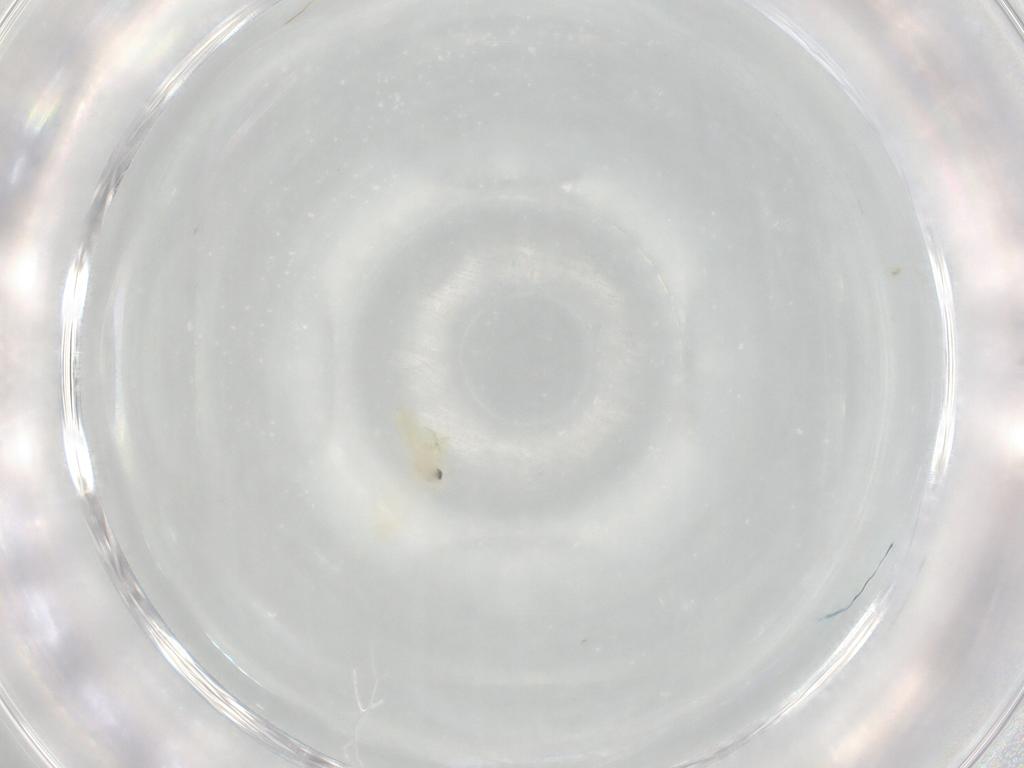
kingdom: Animalia
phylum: Arthropoda
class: Insecta
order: Hemiptera
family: Aleyrodidae
